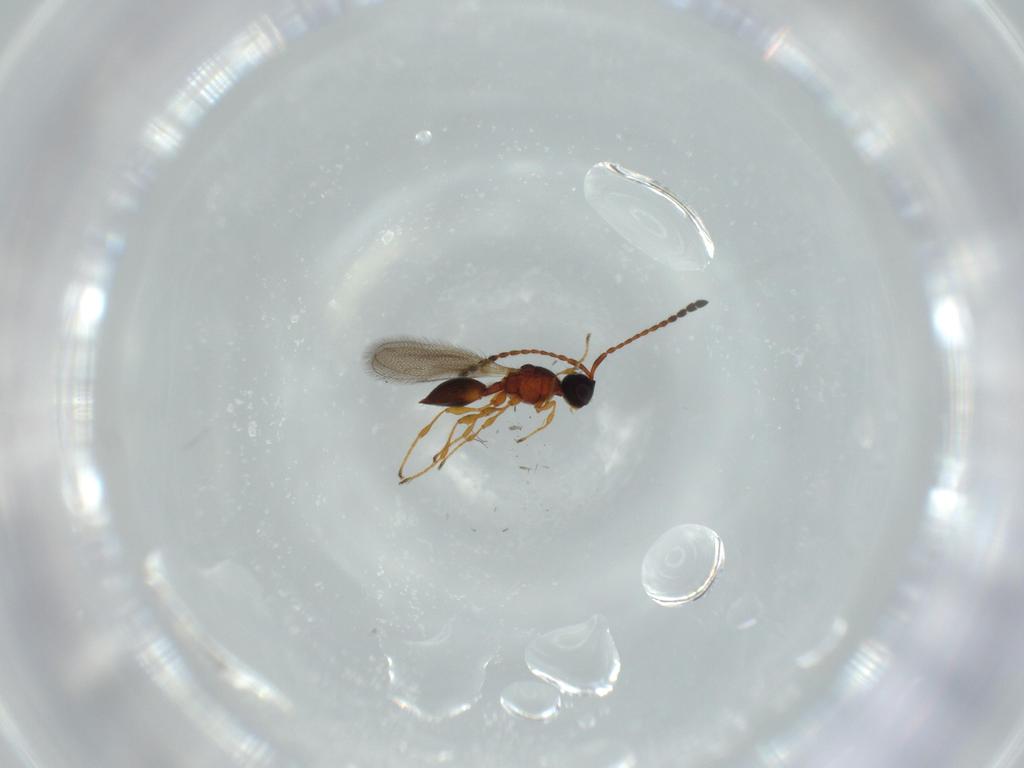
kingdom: Animalia
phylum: Arthropoda
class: Insecta
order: Hymenoptera
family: Diapriidae
